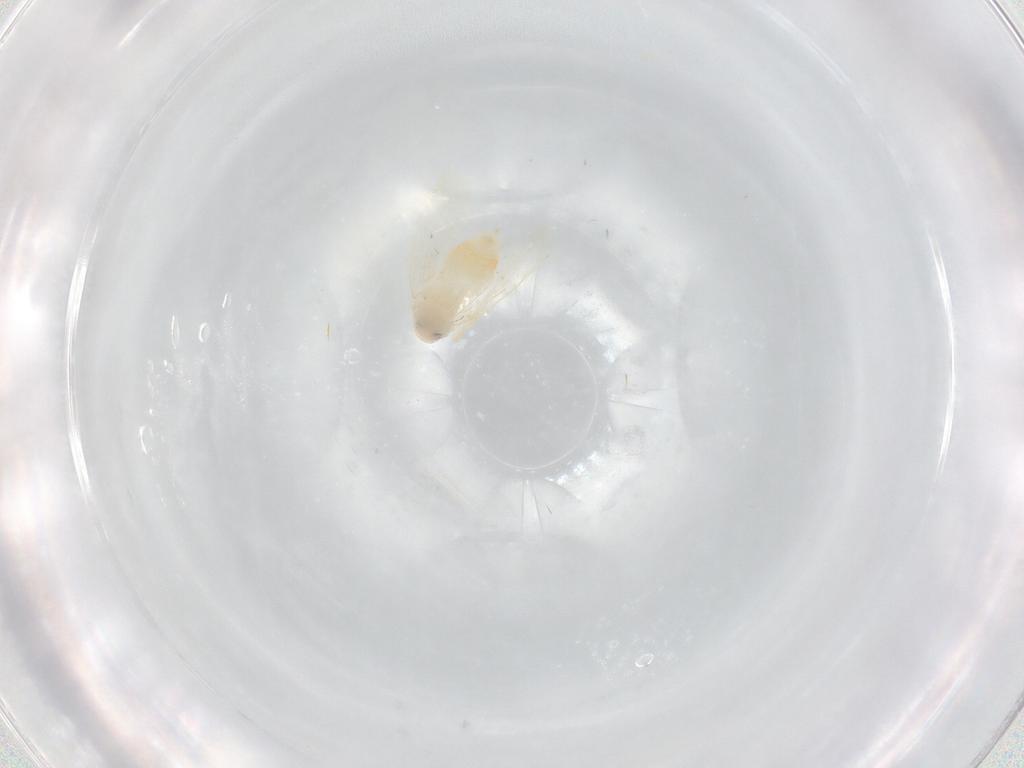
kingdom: Animalia
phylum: Arthropoda
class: Insecta
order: Hemiptera
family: Aleyrodidae
